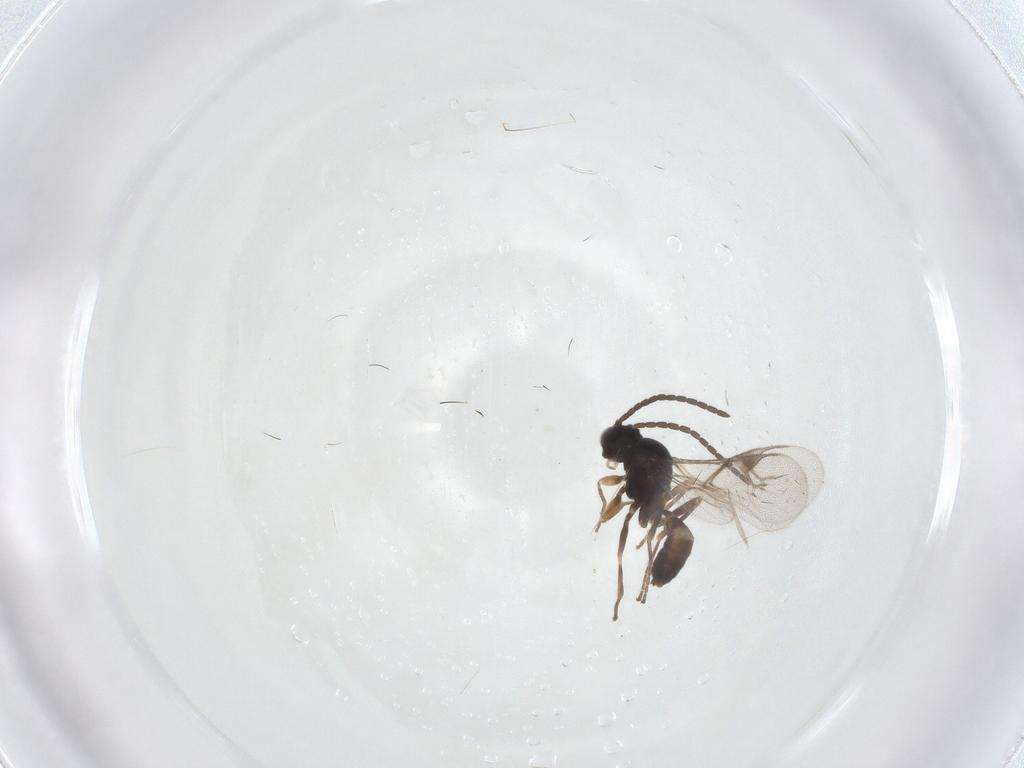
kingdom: Animalia
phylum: Arthropoda
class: Insecta
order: Hymenoptera
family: Braconidae
